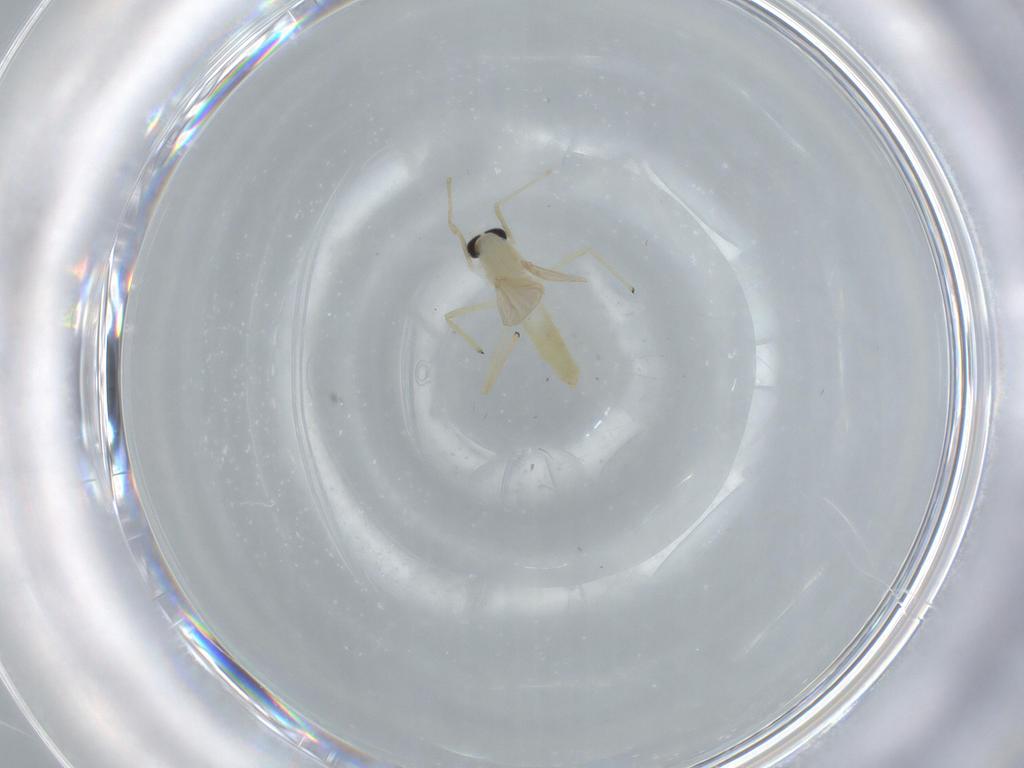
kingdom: Animalia
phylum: Arthropoda
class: Insecta
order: Diptera
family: Chironomidae
